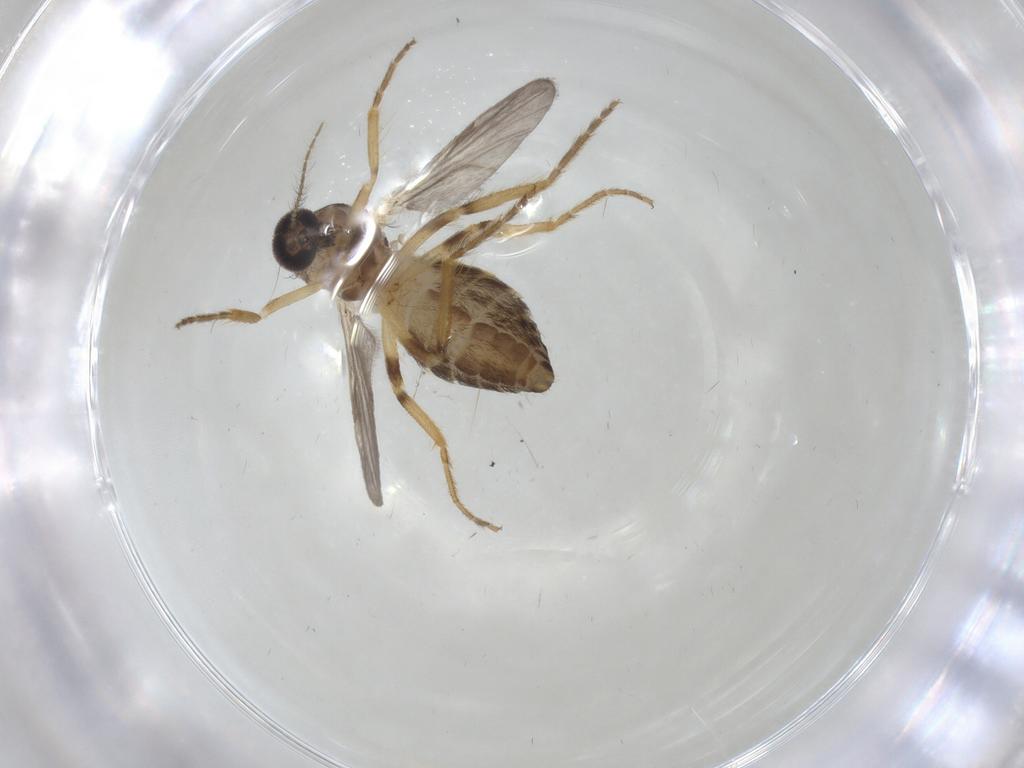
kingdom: Animalia
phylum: Arthropoda
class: Insecta
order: Diptera
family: Ceratopogonidae
